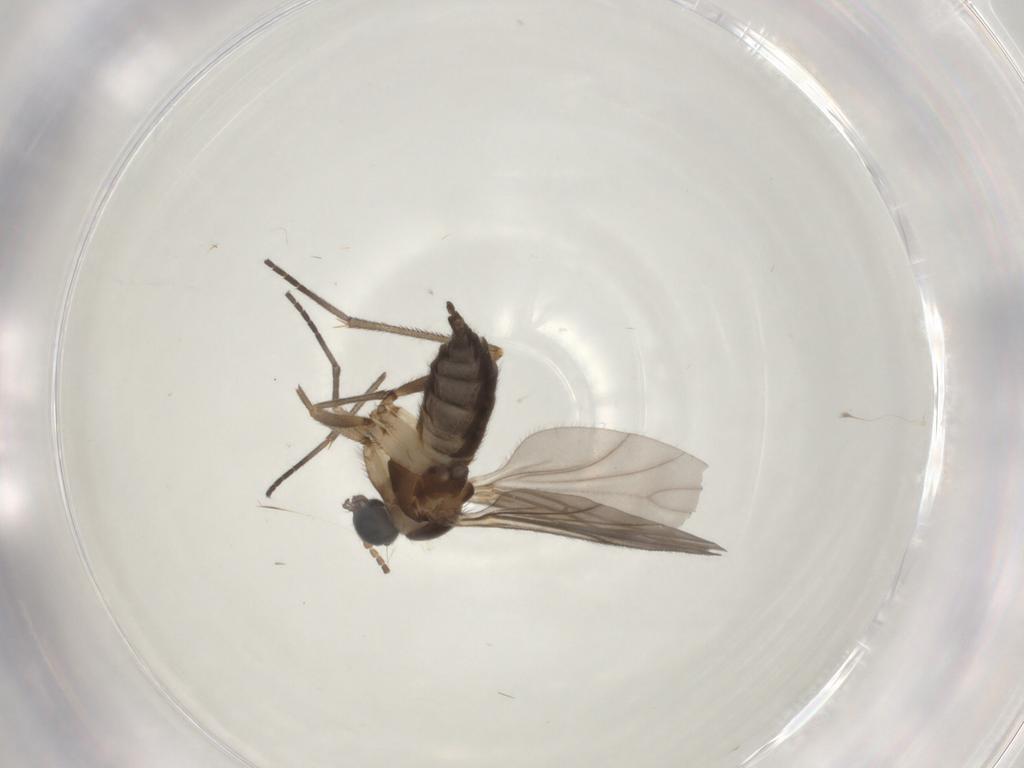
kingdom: Animalia
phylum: Arthropoda
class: Insecta
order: Diptera
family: Sciaridae
